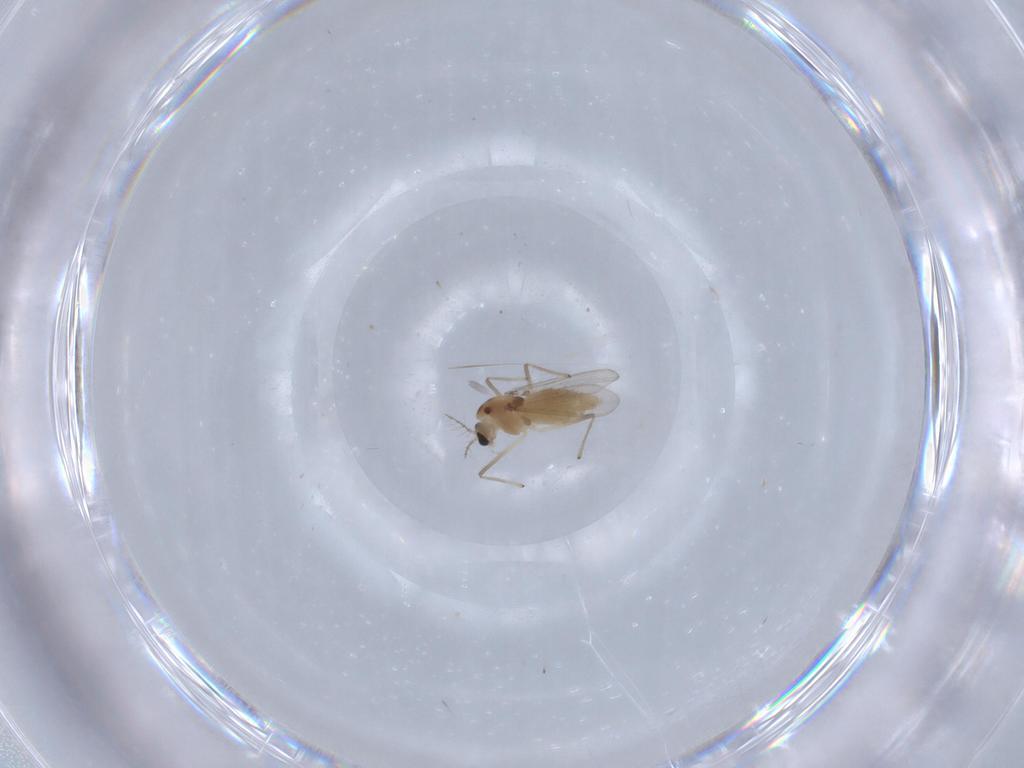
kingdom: Animalia
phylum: Arthropoda
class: Insecta
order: Diptera
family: Chironomidae
